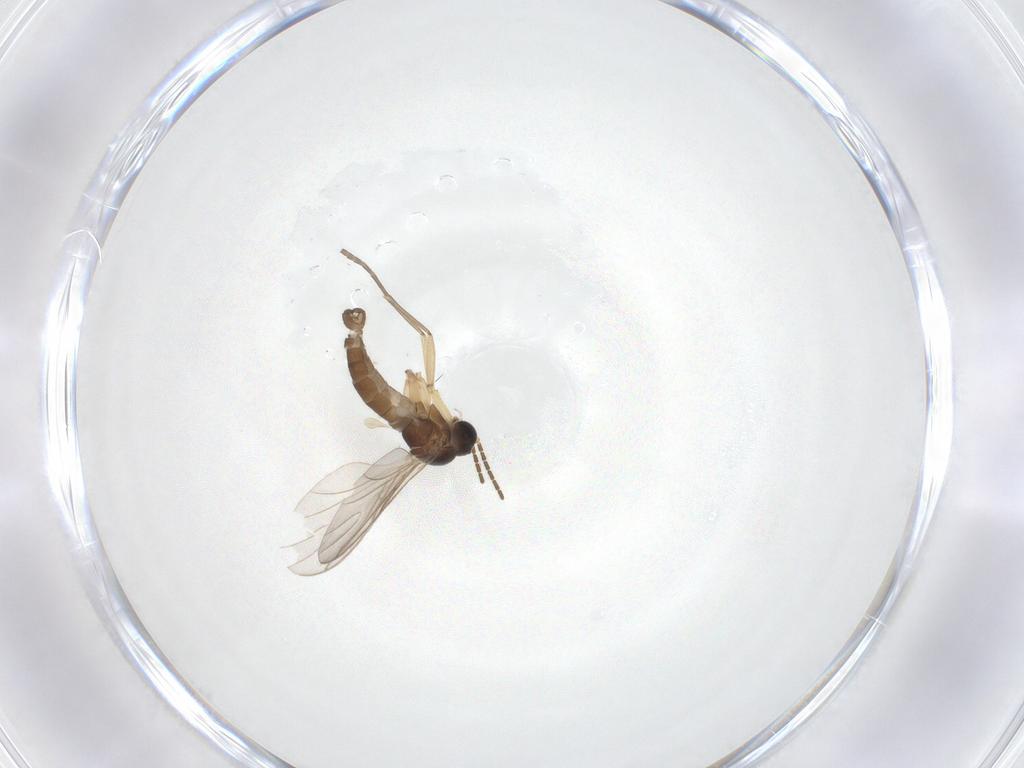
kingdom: Animalia
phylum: Arthropoda
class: Insecta
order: Diptera
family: Sciaridae
